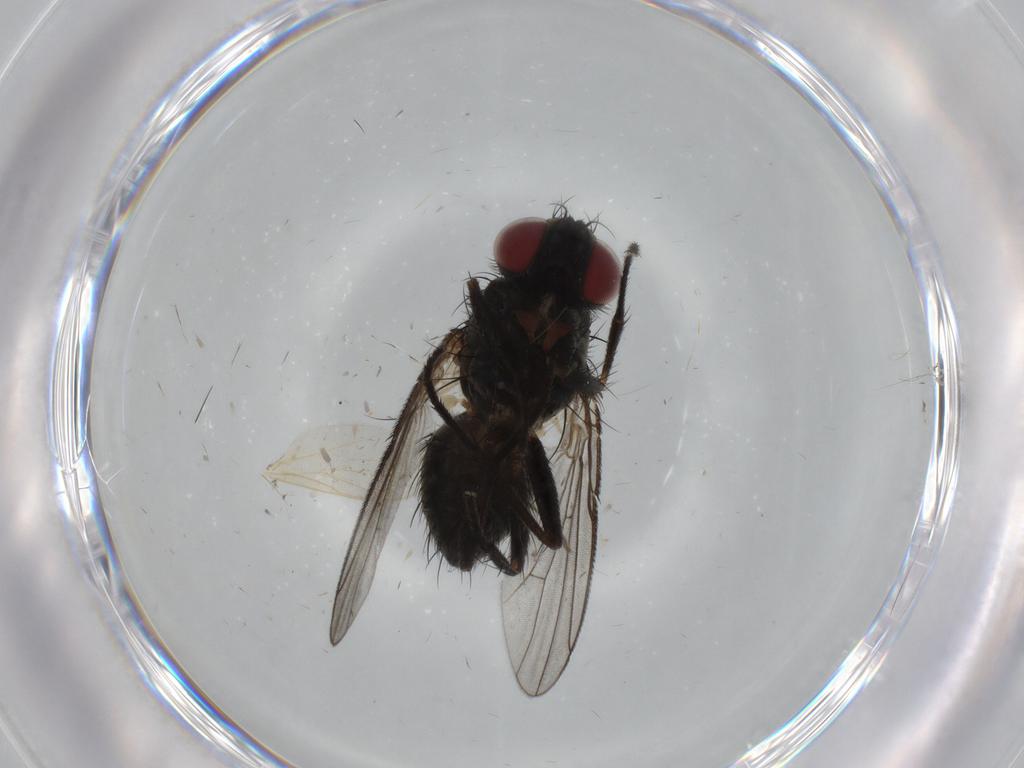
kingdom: Animalia
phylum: Arthropoda
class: Insecta
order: Diptera
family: Muscidae
